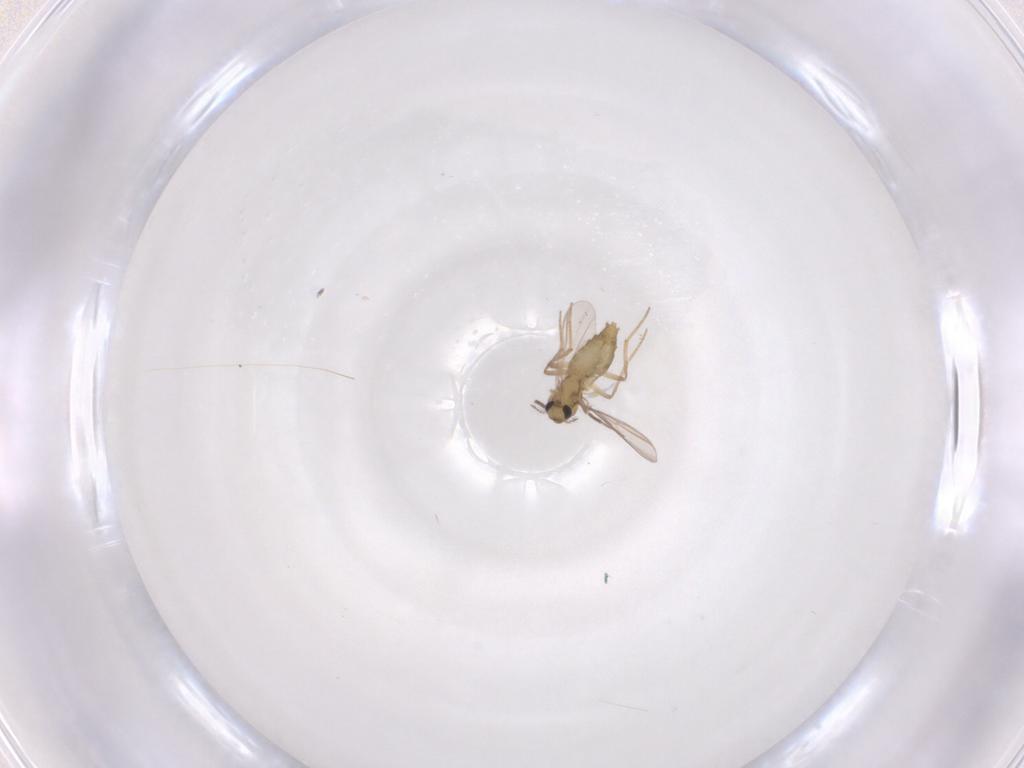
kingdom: Animalia
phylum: Arthropoda
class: Insecta
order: Diptera
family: Chironomidae
